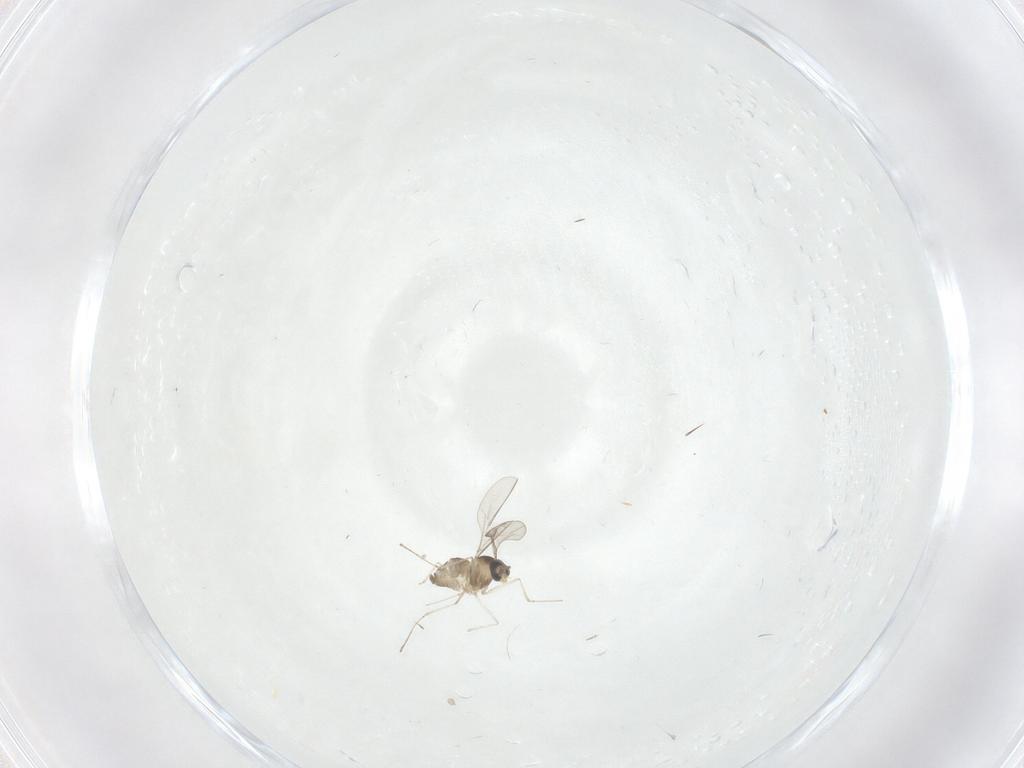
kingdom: Animalia
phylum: Arthropoda
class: Insecta
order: Diptera
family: Cecidomyiidae
